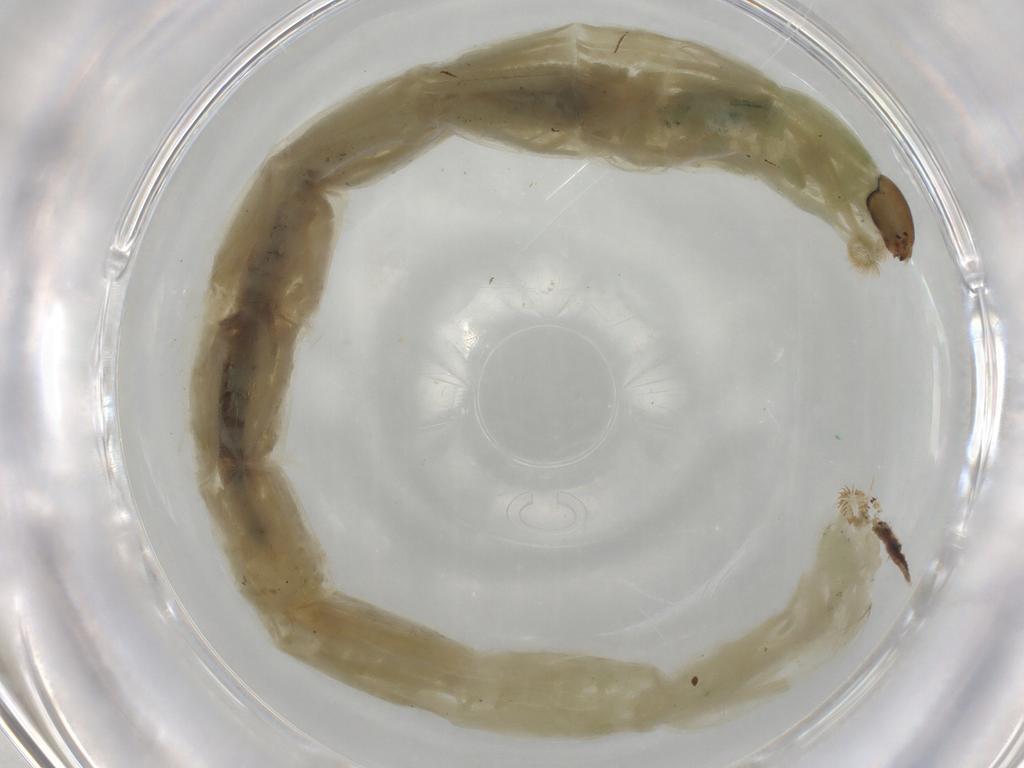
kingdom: Animalia
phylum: Arthropoda
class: Insecta
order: Diptera
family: Chironomidae
